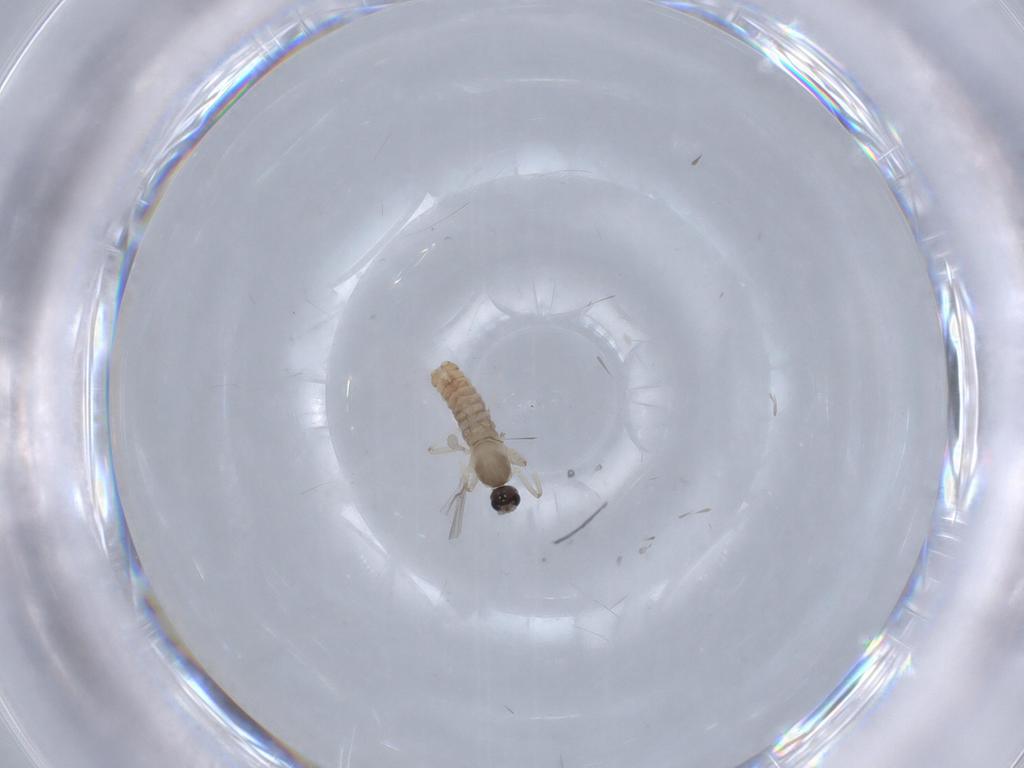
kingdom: Animalia
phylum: Arthropoda
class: Insecta
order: Diptera
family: Cecidomyiidae
